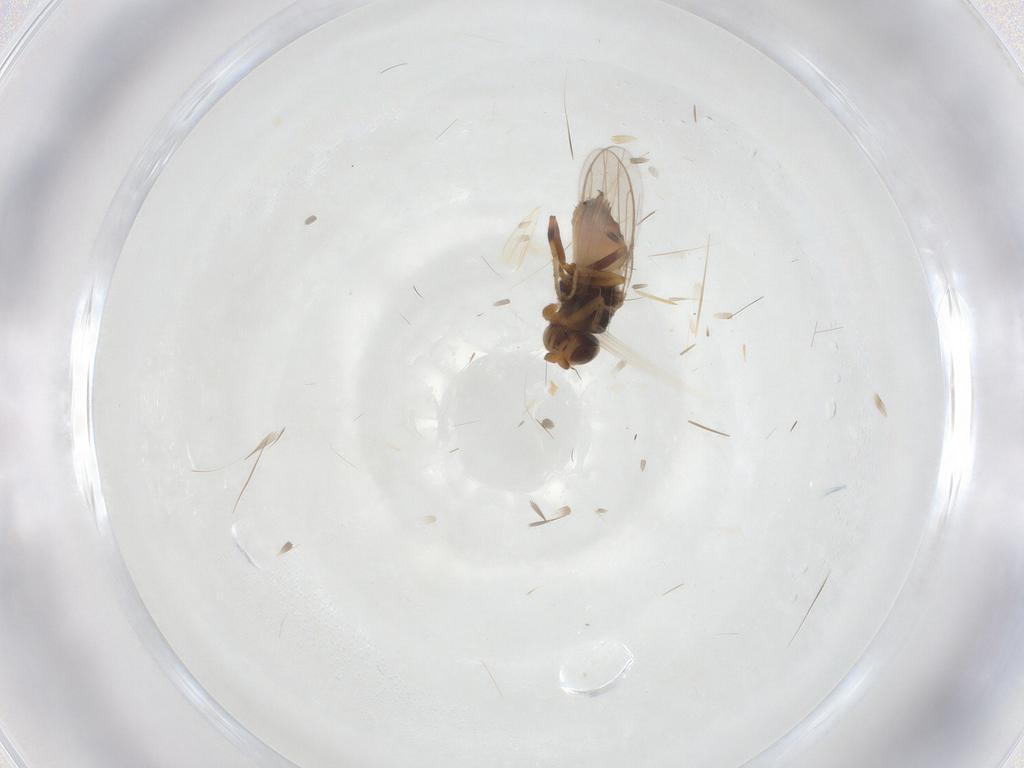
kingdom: Animalia
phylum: Arthropoda
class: Insecta
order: Diptera
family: Cecidomyiidae
